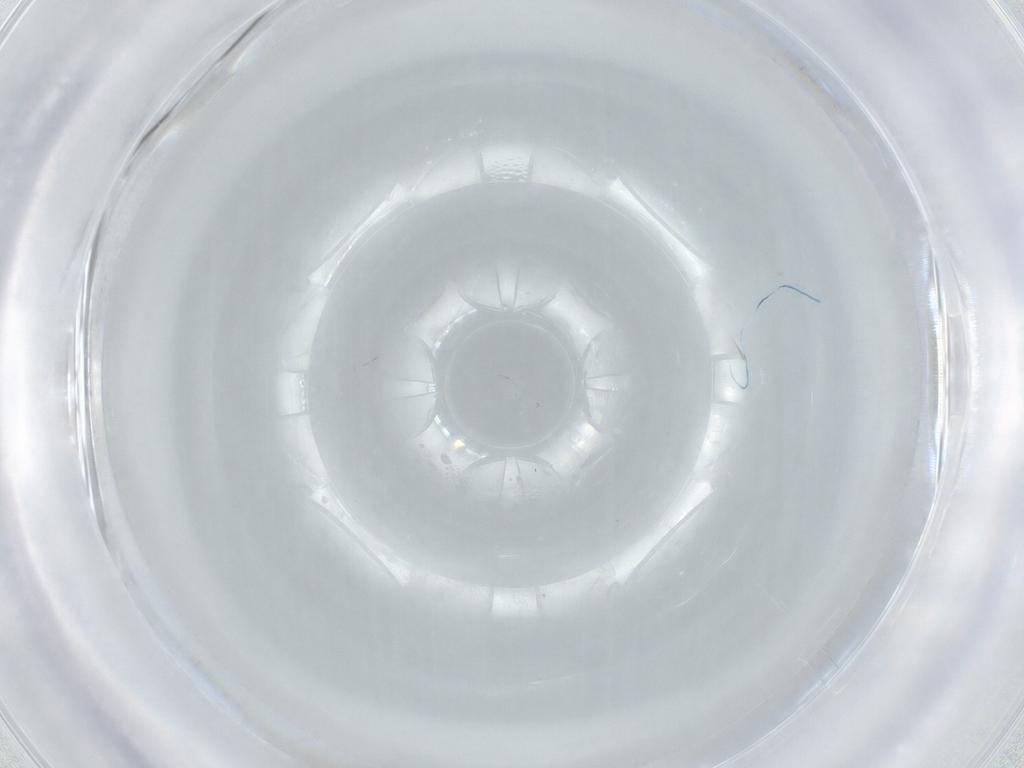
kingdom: Animalia
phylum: Arthropoda
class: Insecta
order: Diptera
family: Cecidomyiidae
